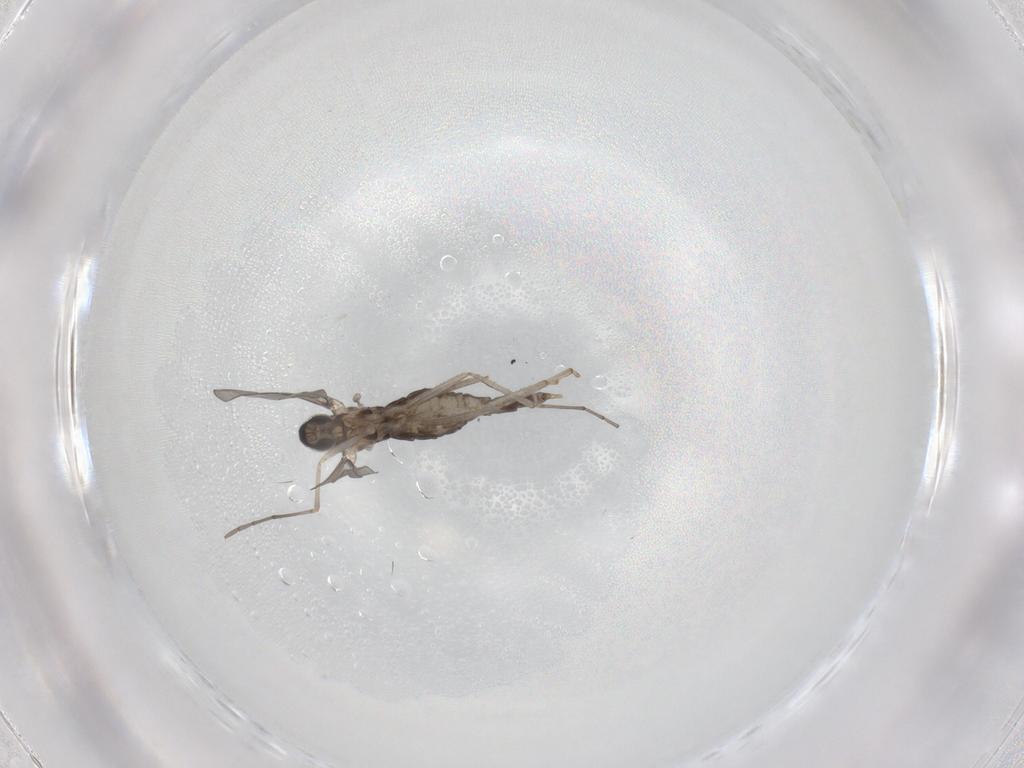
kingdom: Animalia
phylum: Arthropoda
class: Insecta
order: Diptera
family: Cecidomyiidae
